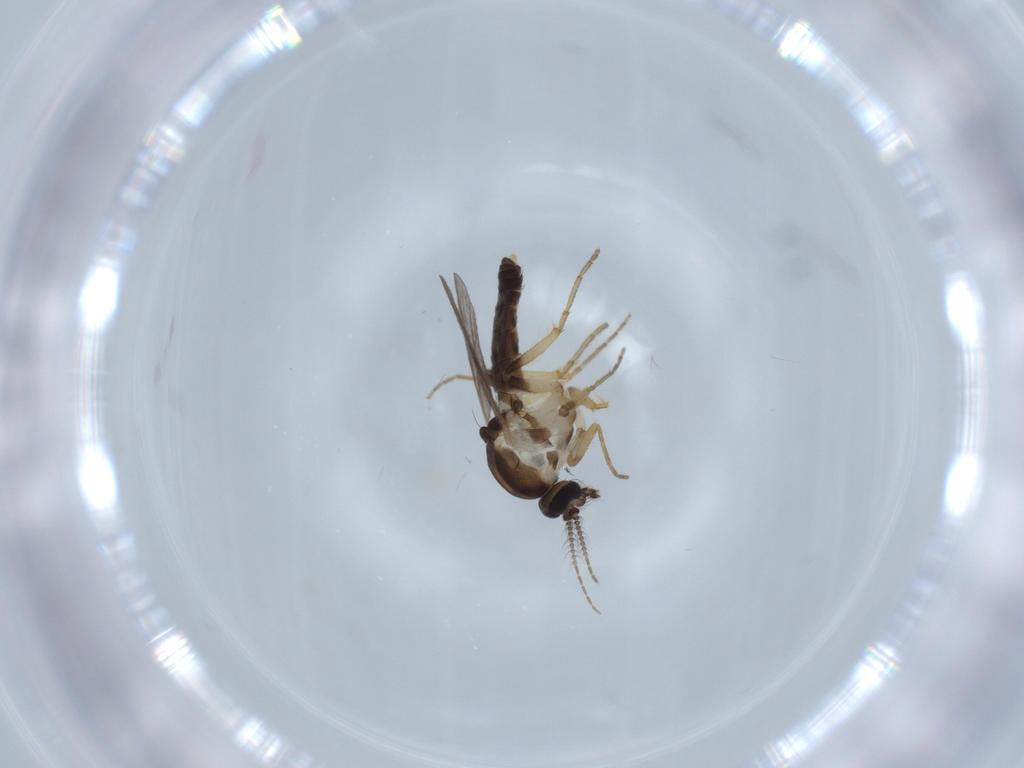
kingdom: Animalia
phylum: Arthropoda
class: Insecta
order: Diptera
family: Ceratopogonidae
